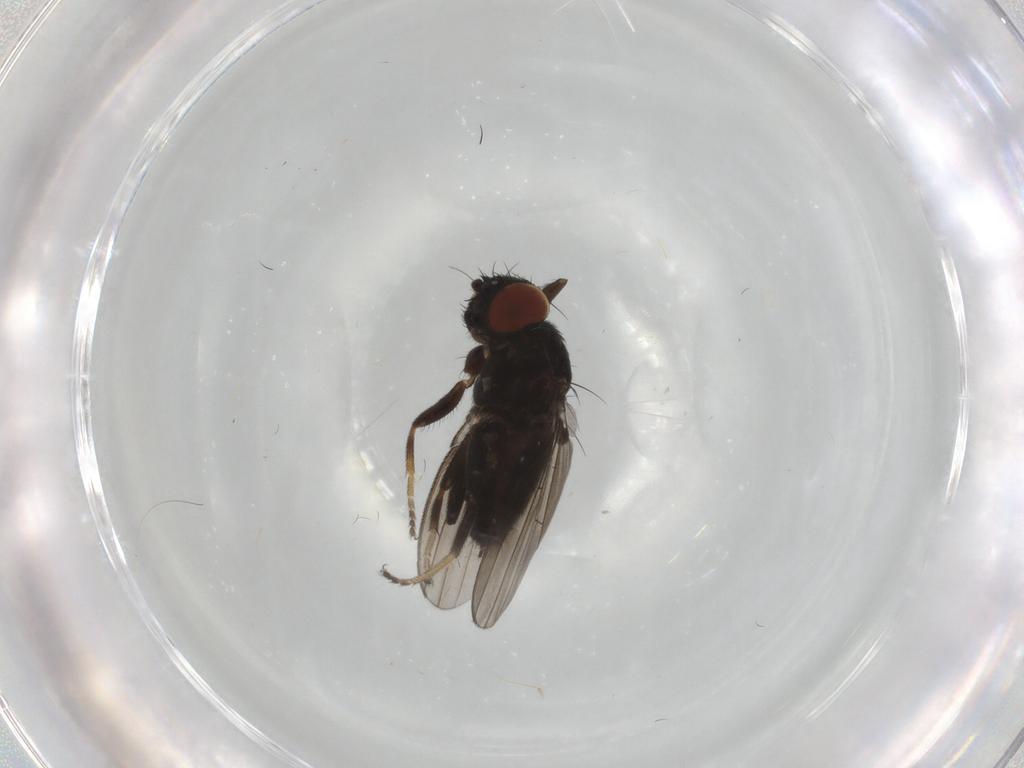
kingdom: Animalia
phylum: Arthropoda
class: Insecta
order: Diptera
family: Milichiidae
